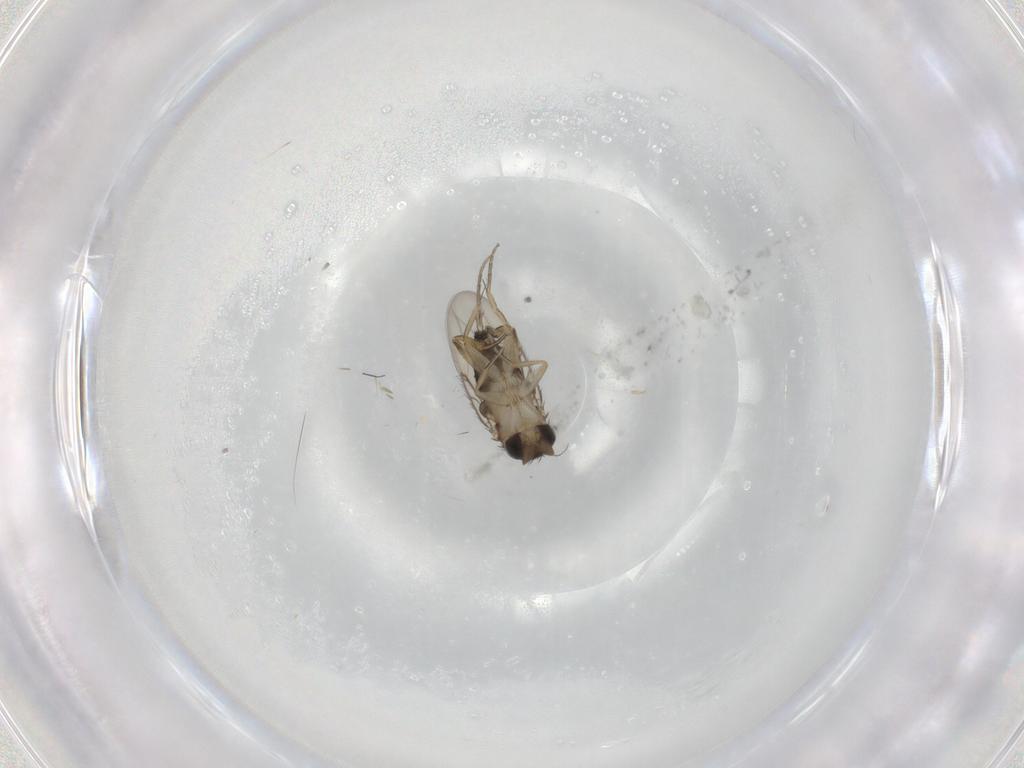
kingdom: Animalia
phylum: Arthropoda
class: Insecta
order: Diptera
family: Phoridae
